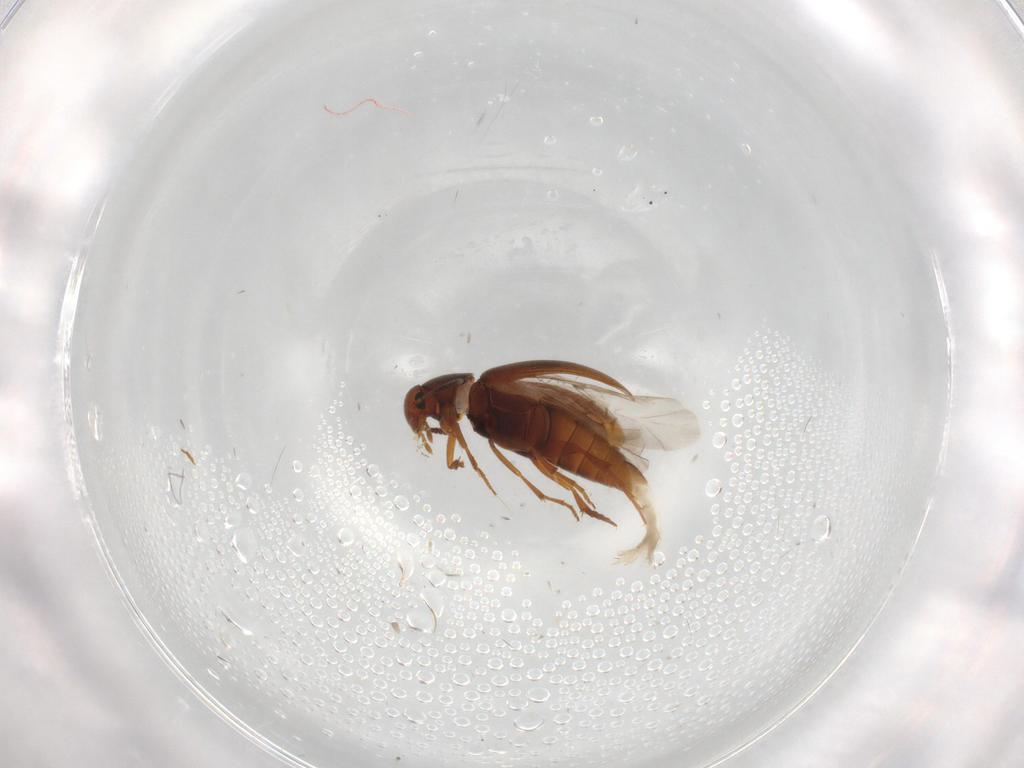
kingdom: Animalia
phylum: Arthropoda
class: Insecta
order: Coleoptera
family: Scraptiidae
